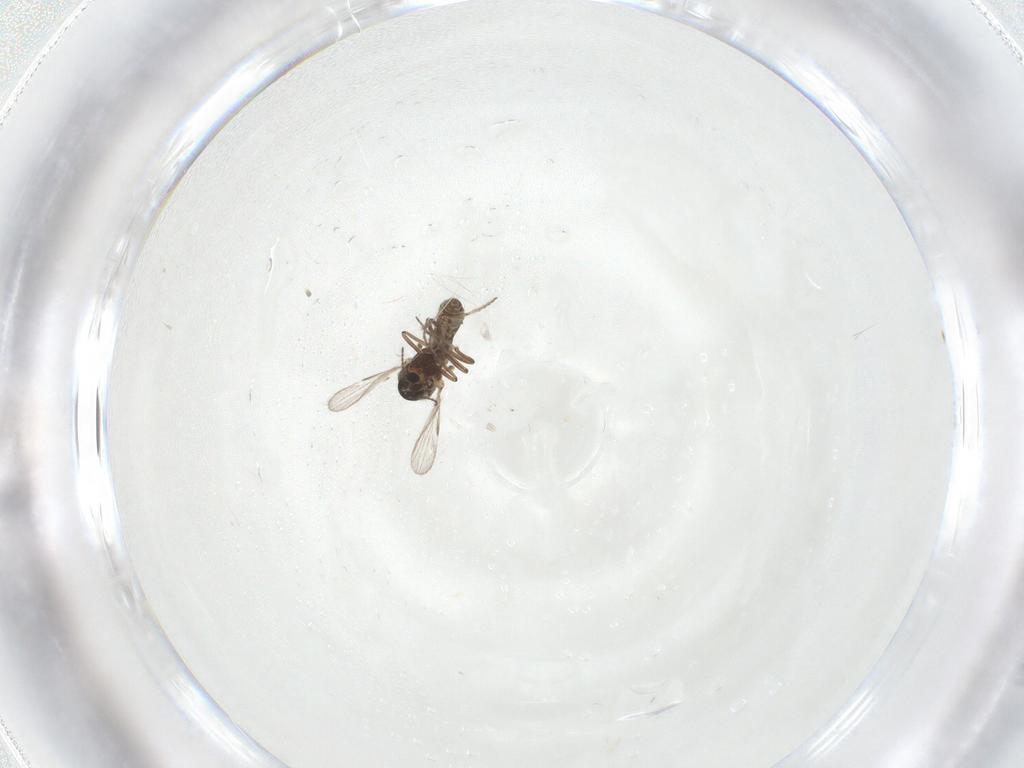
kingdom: Animalia
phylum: Arthropoda
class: Insecta
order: Diptera
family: Ceratopogonidae
